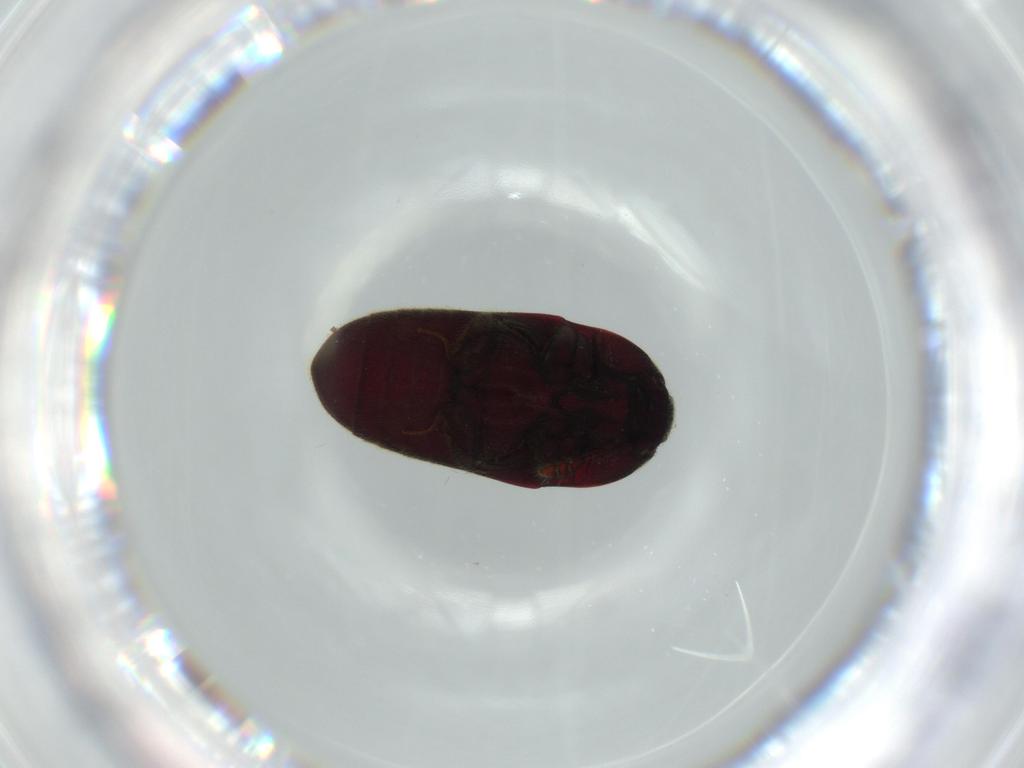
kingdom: Animalia
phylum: Arthropoda
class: Insecta
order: Coleoptera
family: Throscidae
